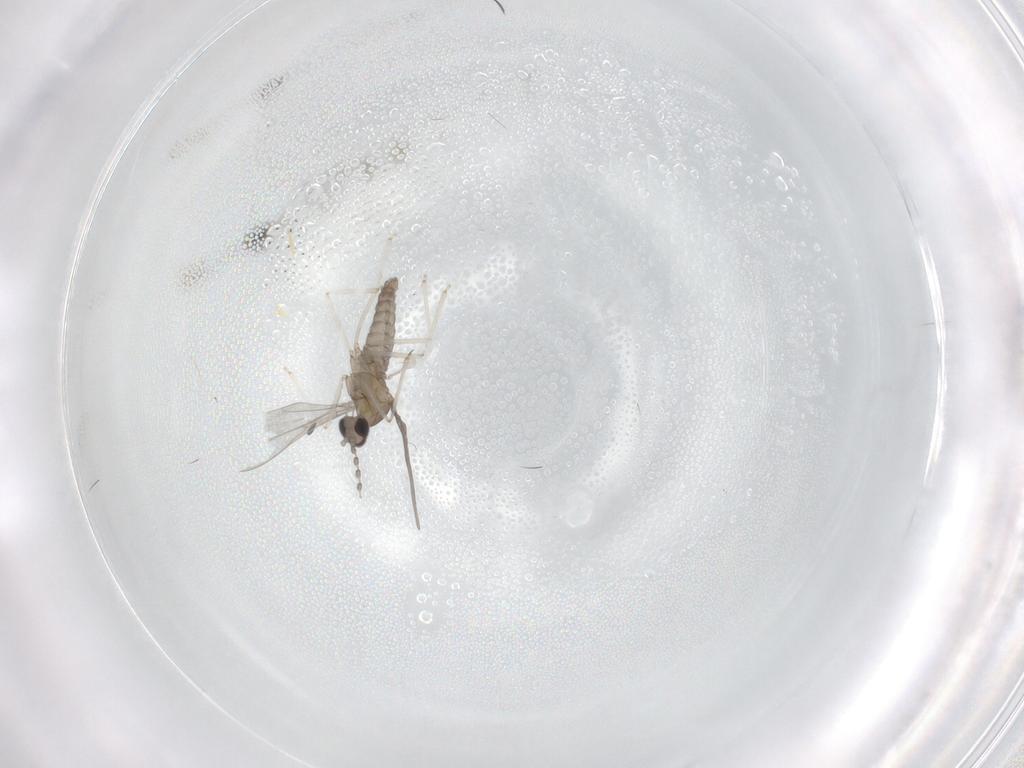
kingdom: Animalia
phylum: Arthropoda
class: Insecta
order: Diptera
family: Dolichopodidae
